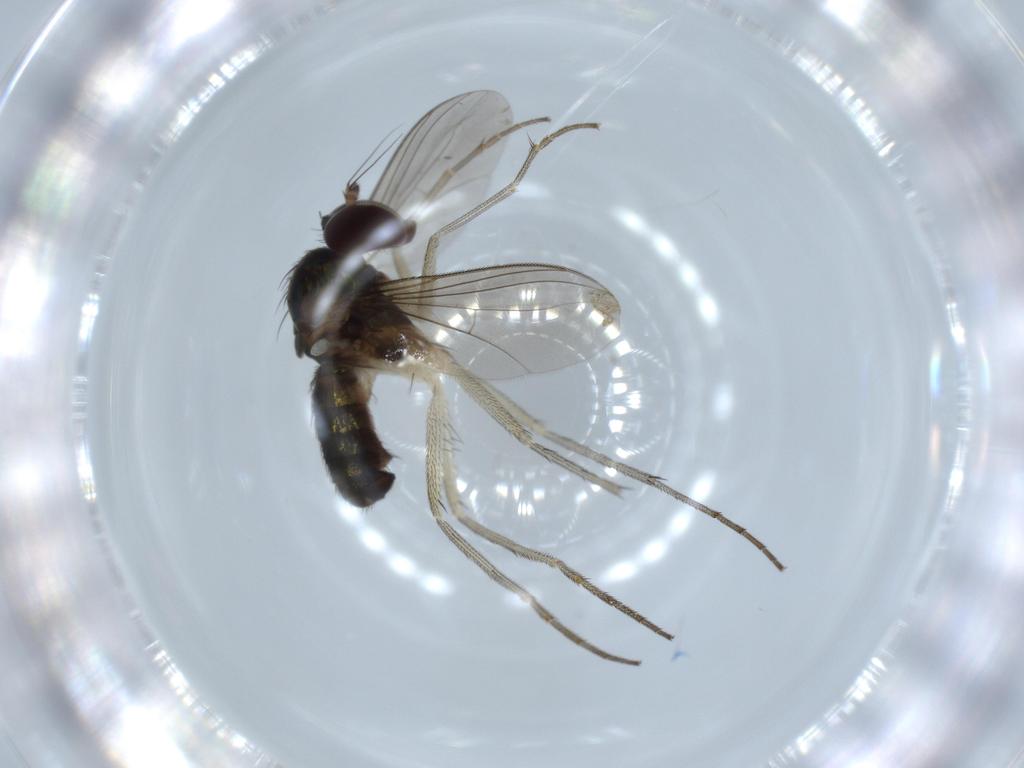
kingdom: Animalia
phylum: Arthropoda
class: Insecta
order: Diptera
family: Dolichopodidae
